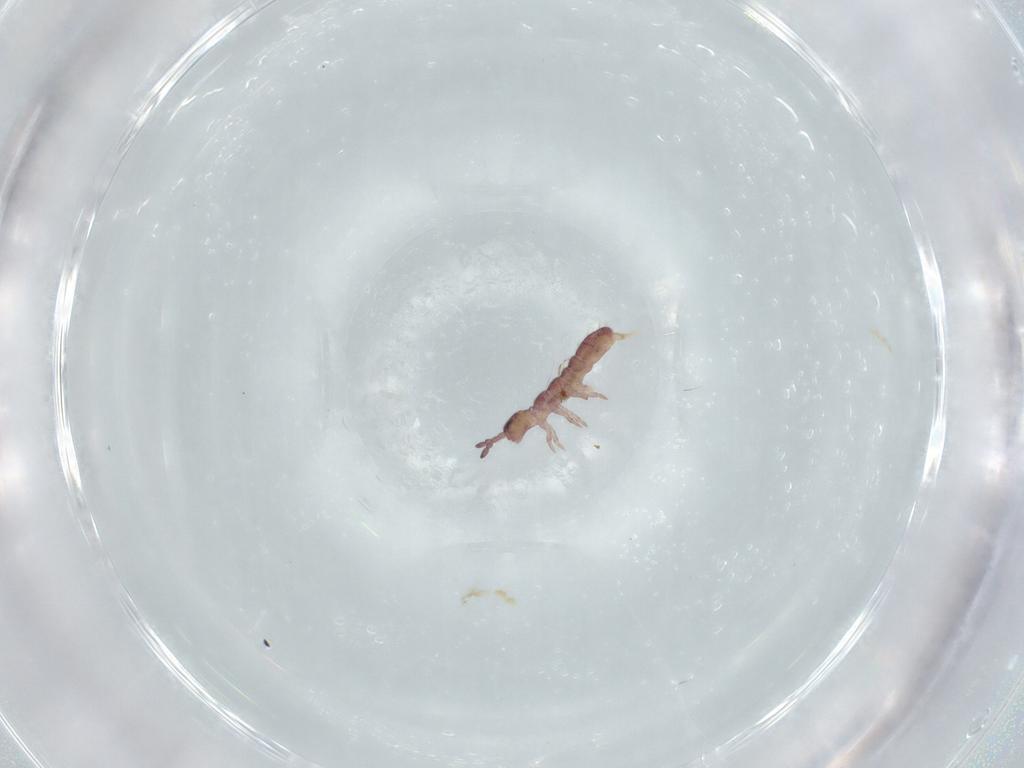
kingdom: Animalia
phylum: Arthropoda
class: Collembola
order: Entomobryomorpha
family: Isotomidae
